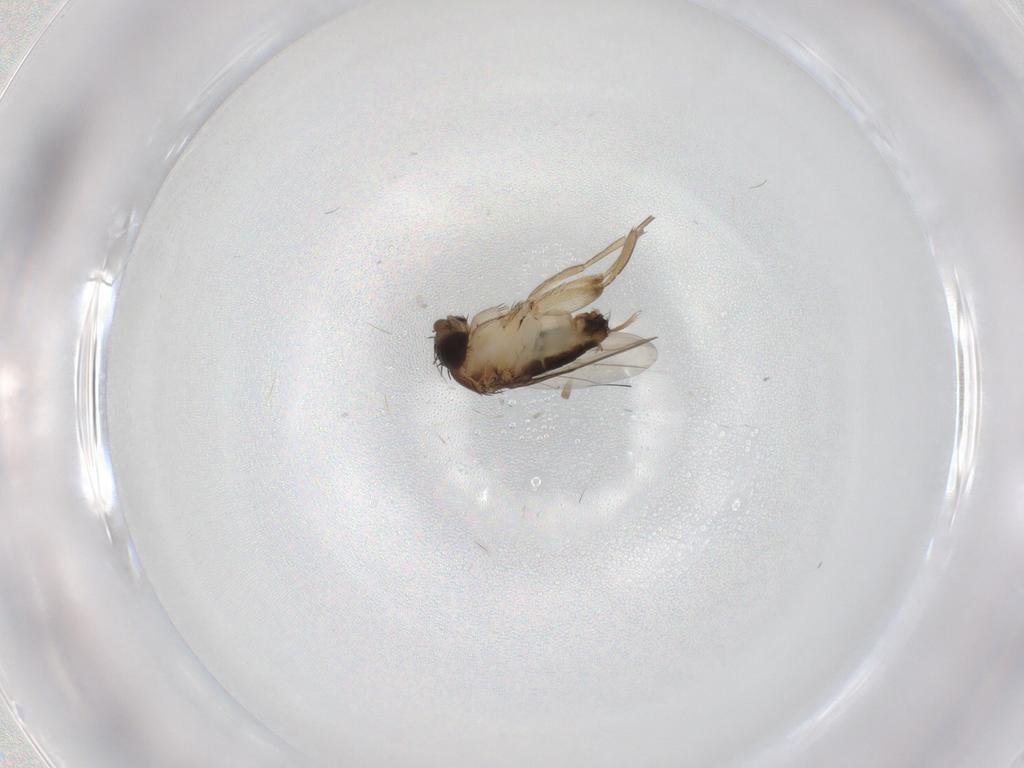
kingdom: Animalia
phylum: Arthropoda
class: Insecta
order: Diptera
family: Phoridae
